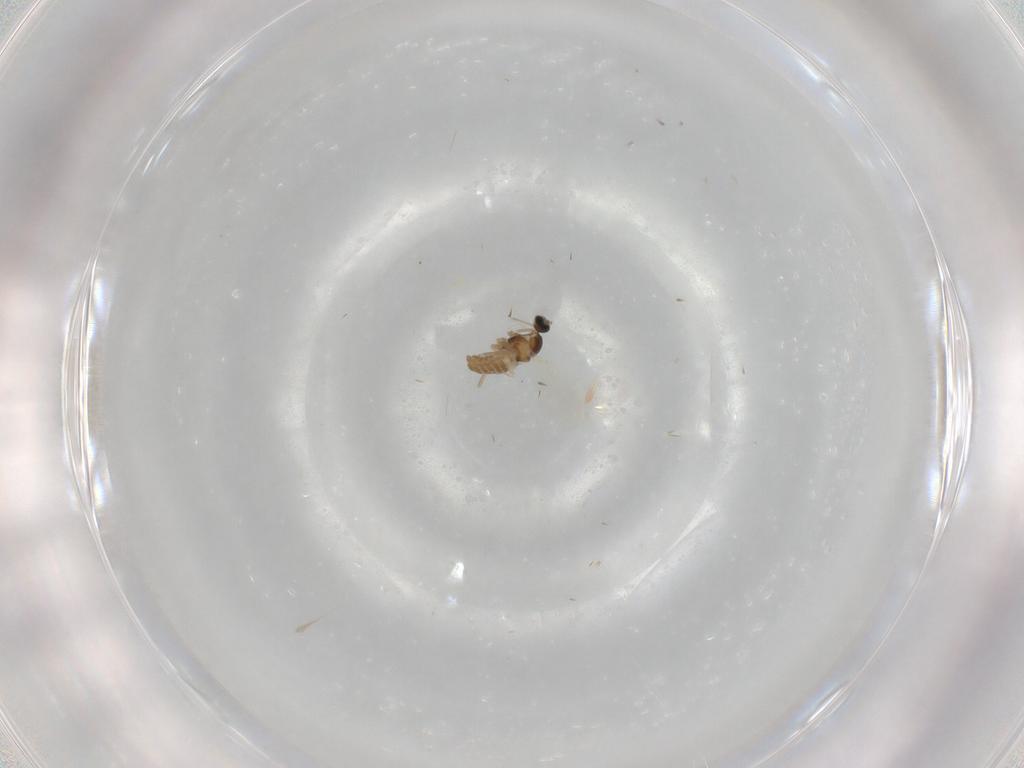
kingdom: Animalia
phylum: Arthropoda
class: Insecta
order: Diptera
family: Cecidomyiidae
